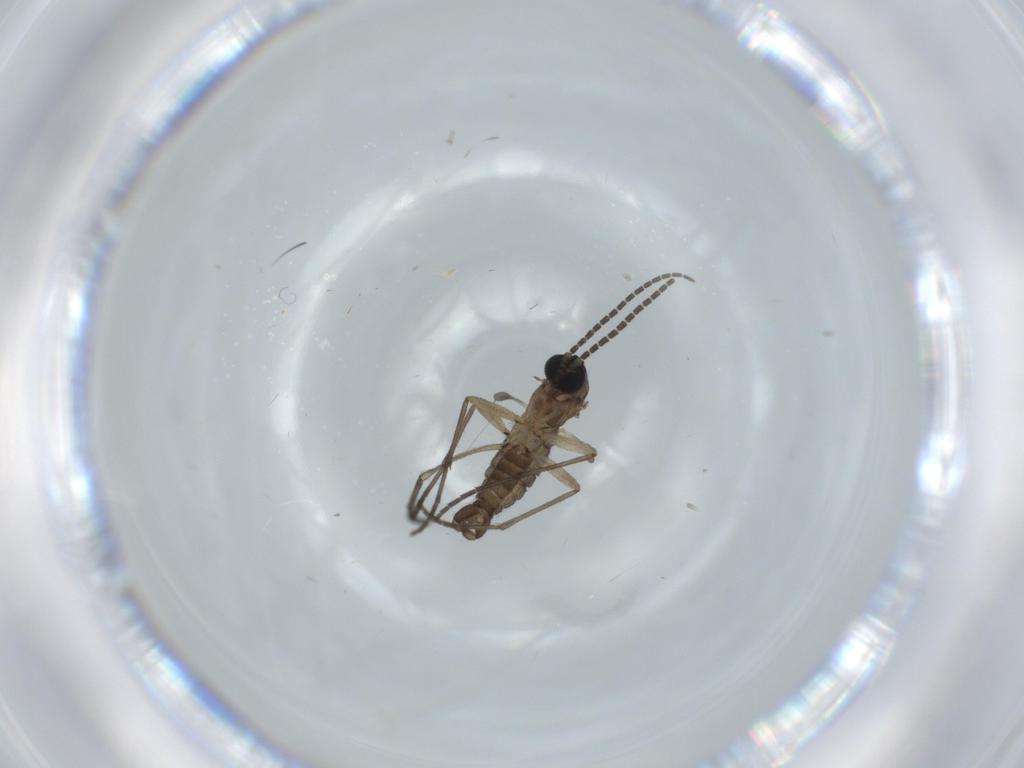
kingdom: Animalia
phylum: Arthropoda
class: Insecta
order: Diptera
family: Sciaridae
